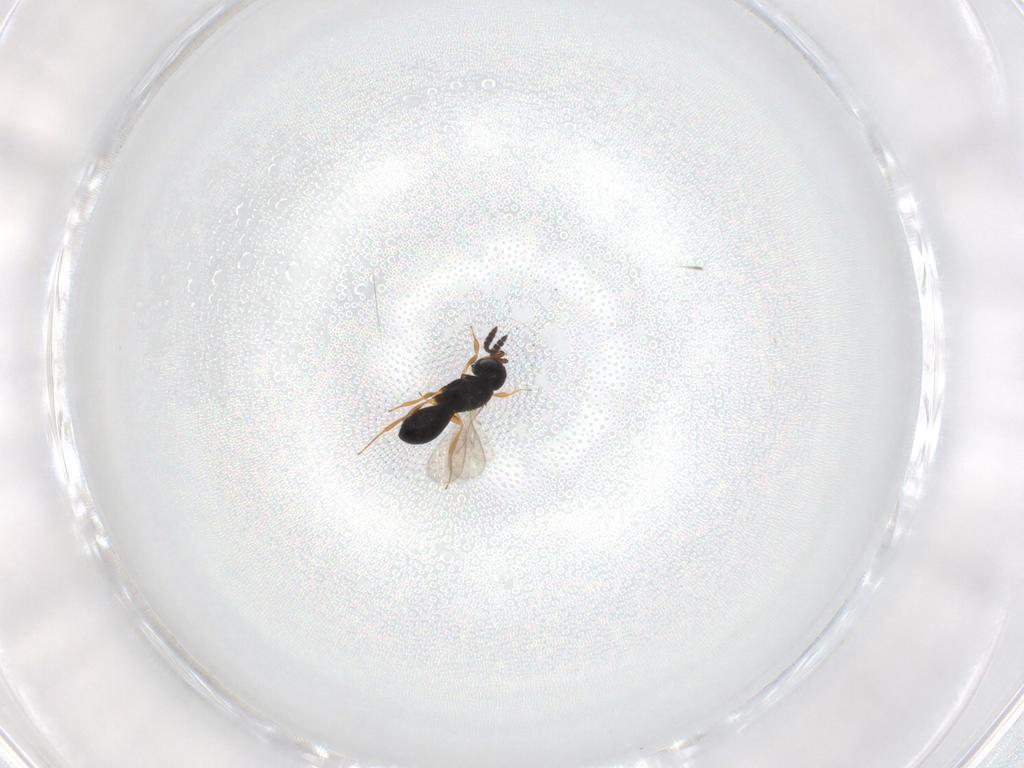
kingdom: Animalia
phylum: Arthropoda
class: Insecta
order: Hymenoptera
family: Scelionidae
